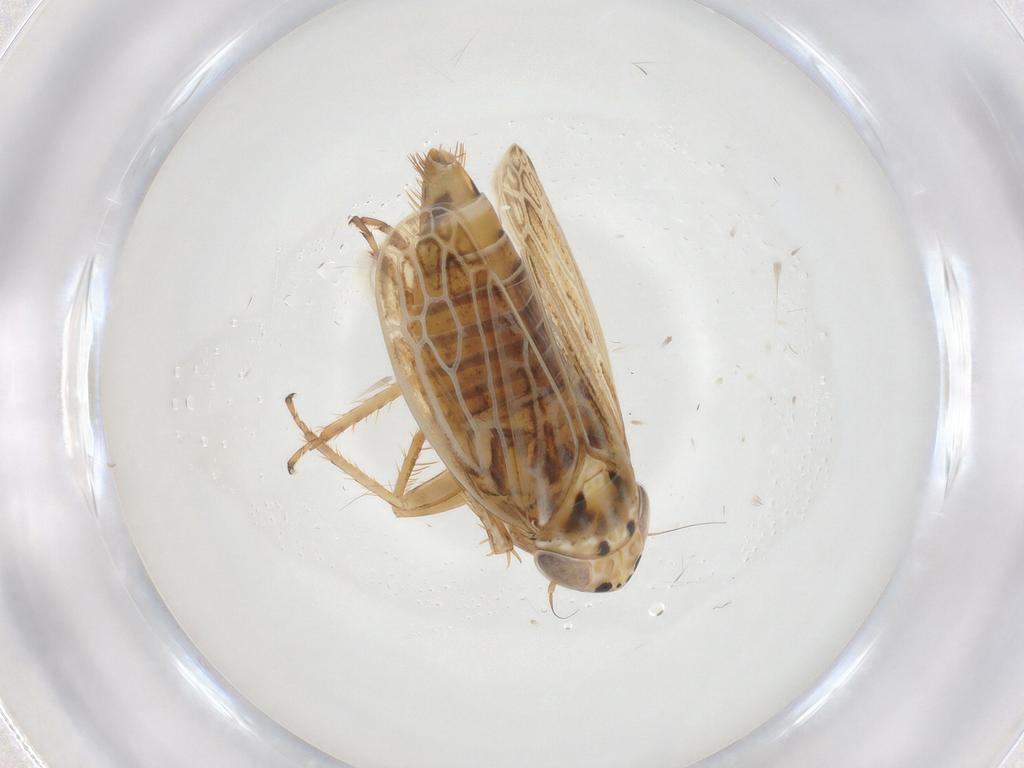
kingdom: Animalia
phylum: Arthropoda
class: Insecta
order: Hemiptera
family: Cicadellidae
